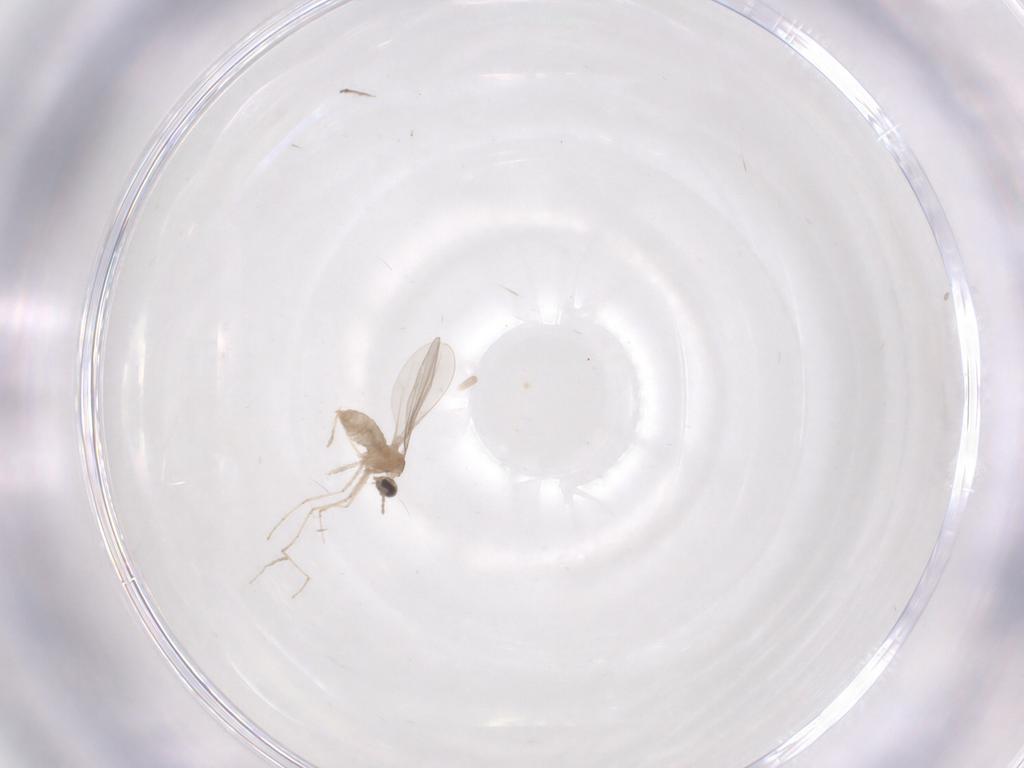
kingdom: Animalia
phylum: Arthropoda
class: Insecta
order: Diptera
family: Cecidomyiidae
